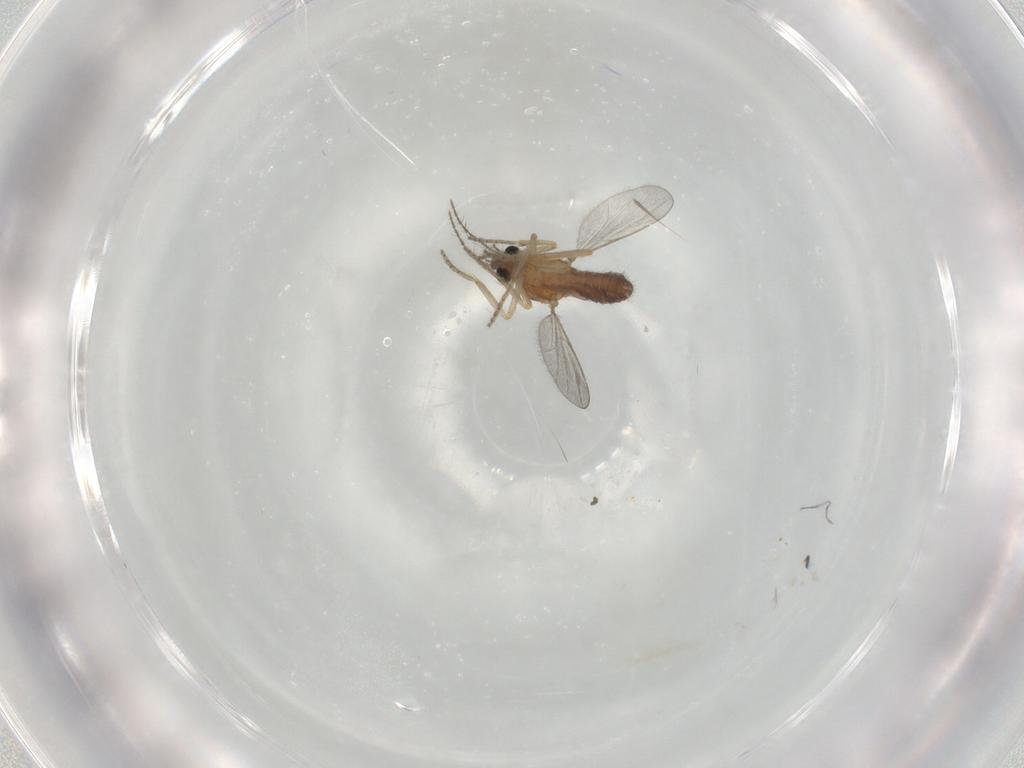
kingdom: Animalia
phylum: Arthropoda
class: Insecta
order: Diptera
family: Ceratopogonidae
